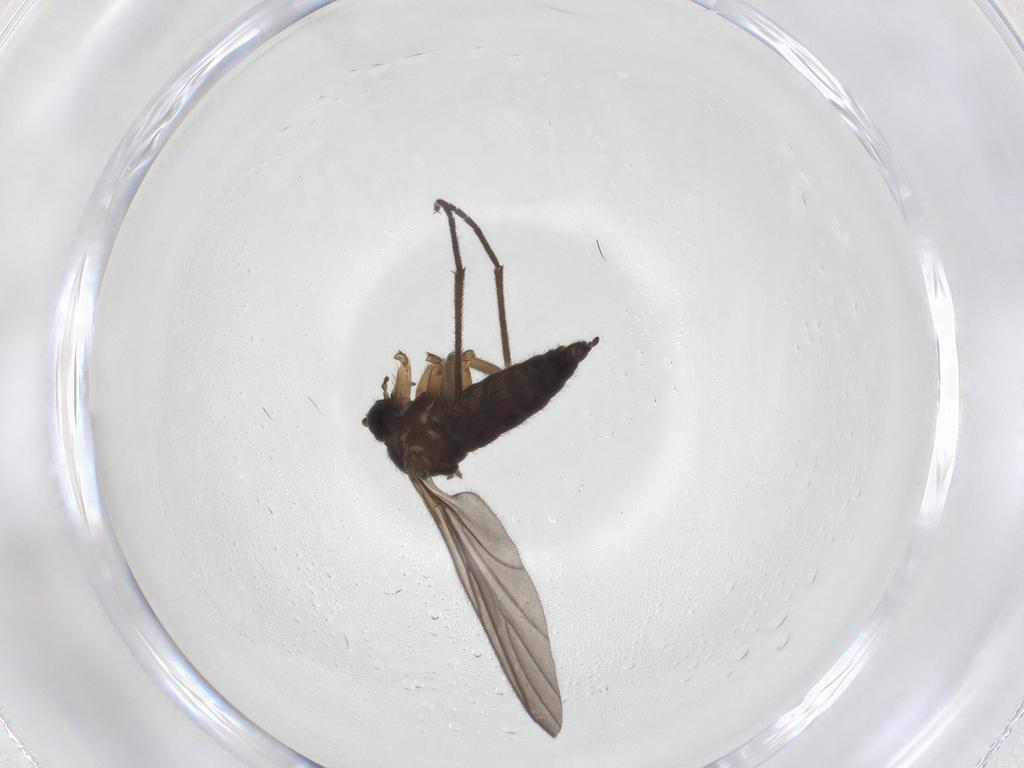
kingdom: Animalia
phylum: Arthropoda
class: Insecta
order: Diptera
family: Sciaridae
